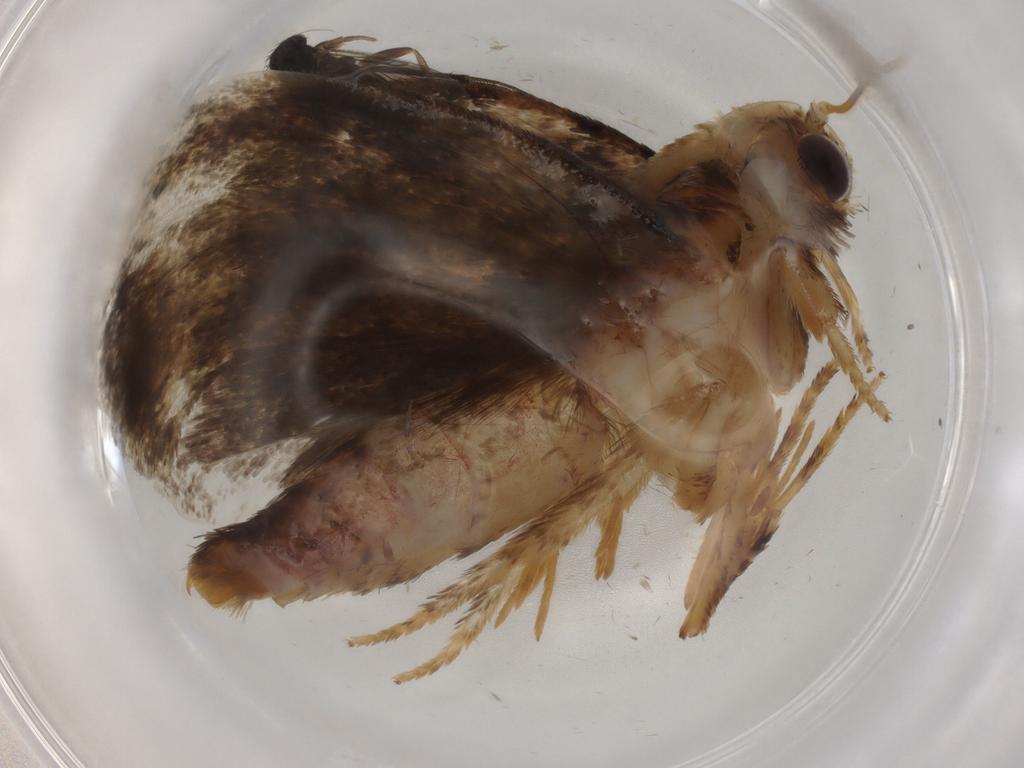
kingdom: Animalia
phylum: Arthropoda
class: Insecta
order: Lepidoptera
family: Tineidae
